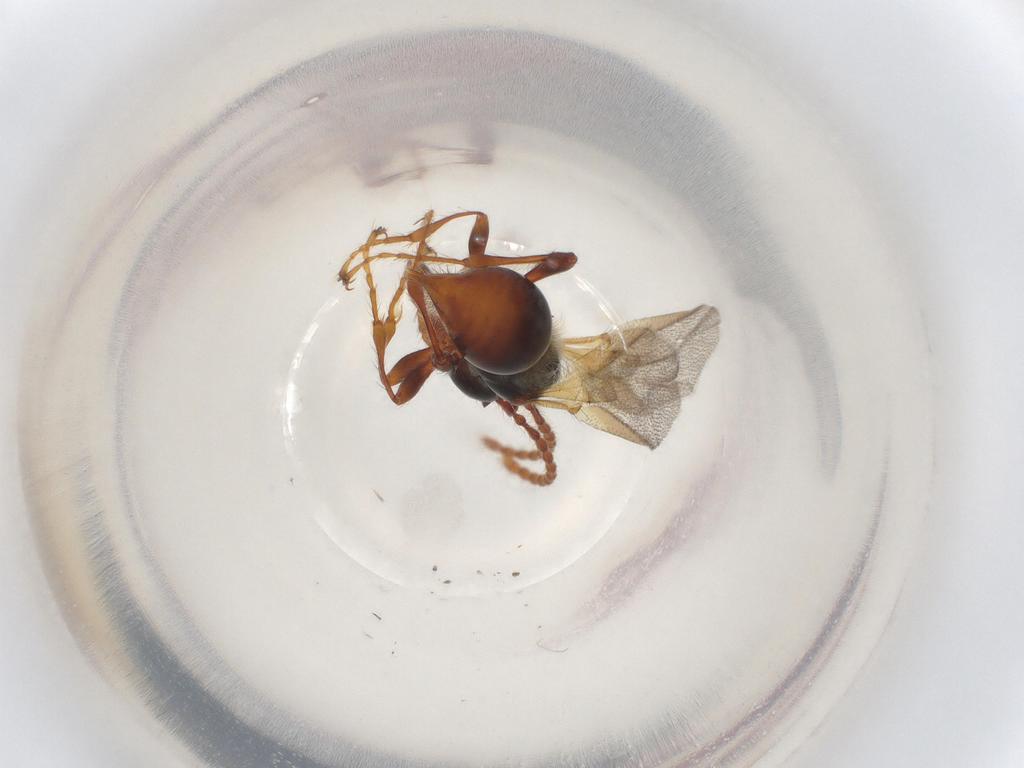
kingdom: Animalia
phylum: Arthropoda
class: Insecta
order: Hymenoptera
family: Diapriidae
